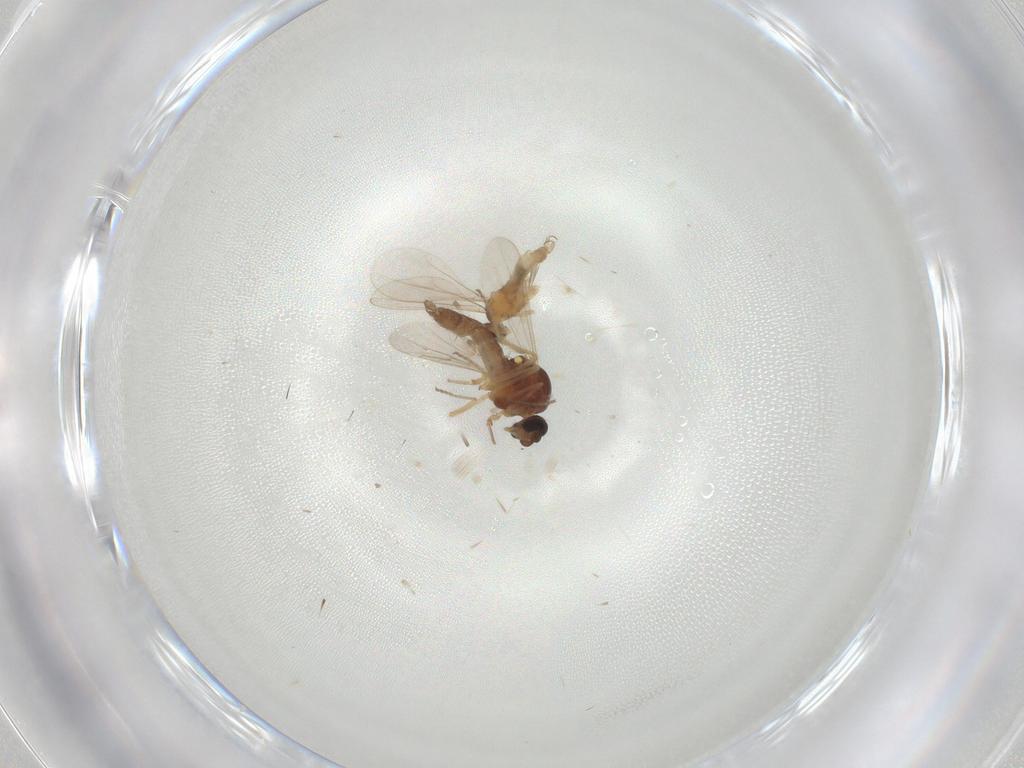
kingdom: Animalia
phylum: Arthropoda
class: Insecta
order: Diptera
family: Ceratopogonidae
